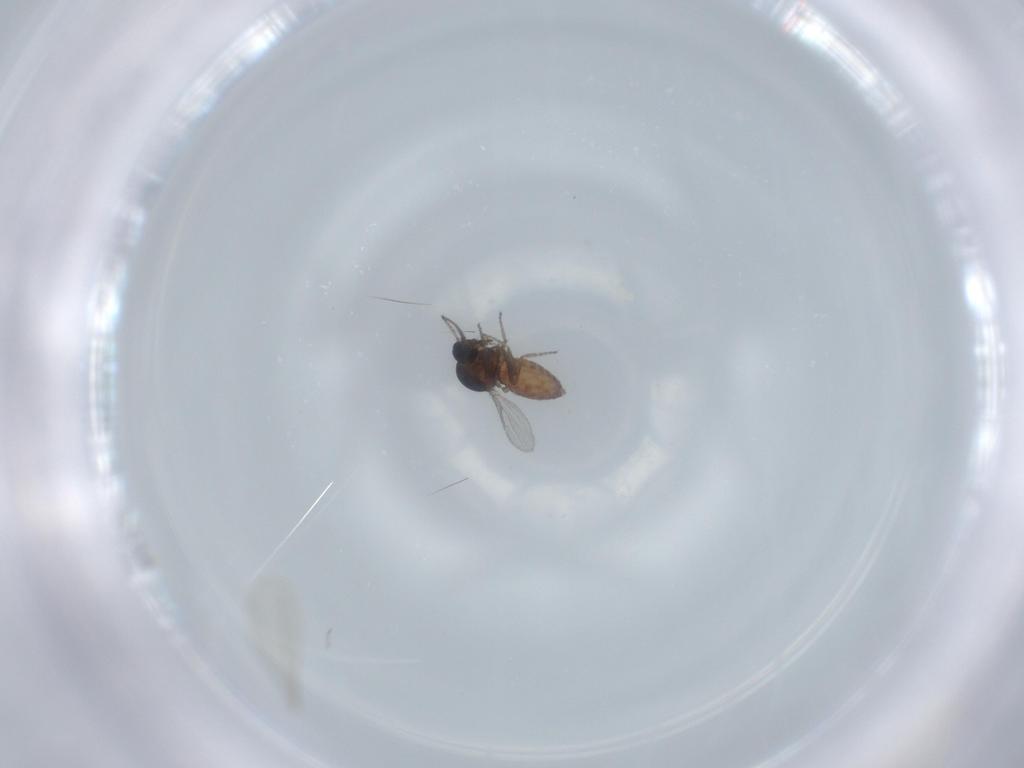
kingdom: Animalia
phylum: Arthropoda
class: Insecta
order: Diptera
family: Ceratopogonidae
